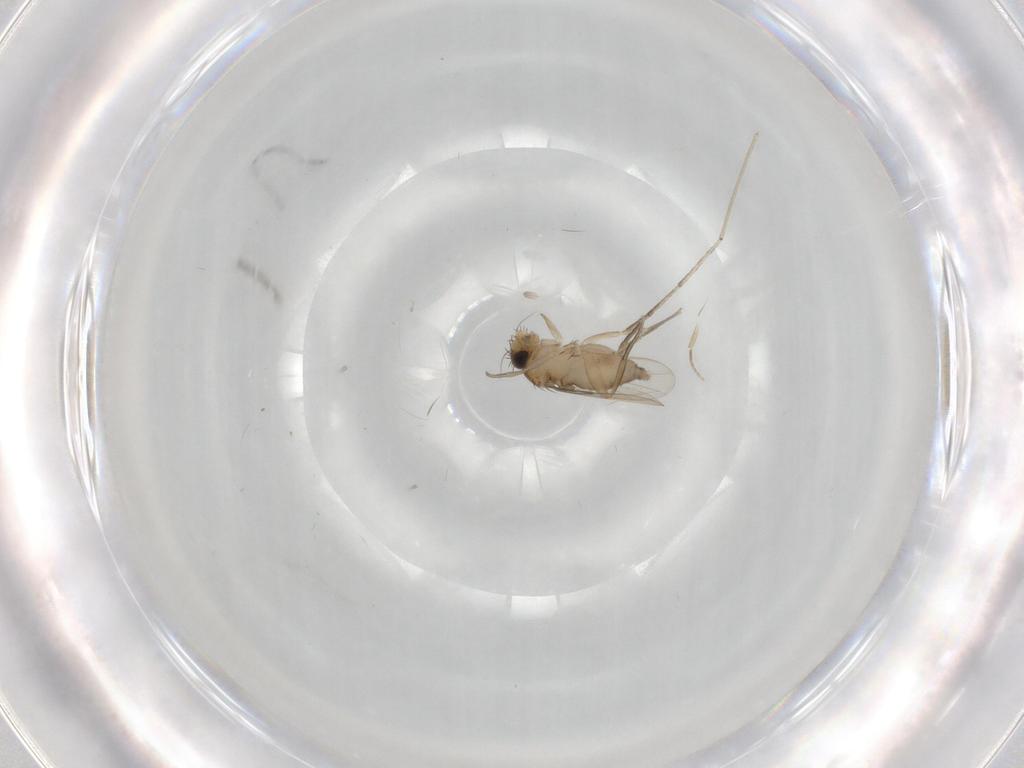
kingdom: Animalia
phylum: Arthropoda
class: Insecta
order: Diptera
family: Phoridae
